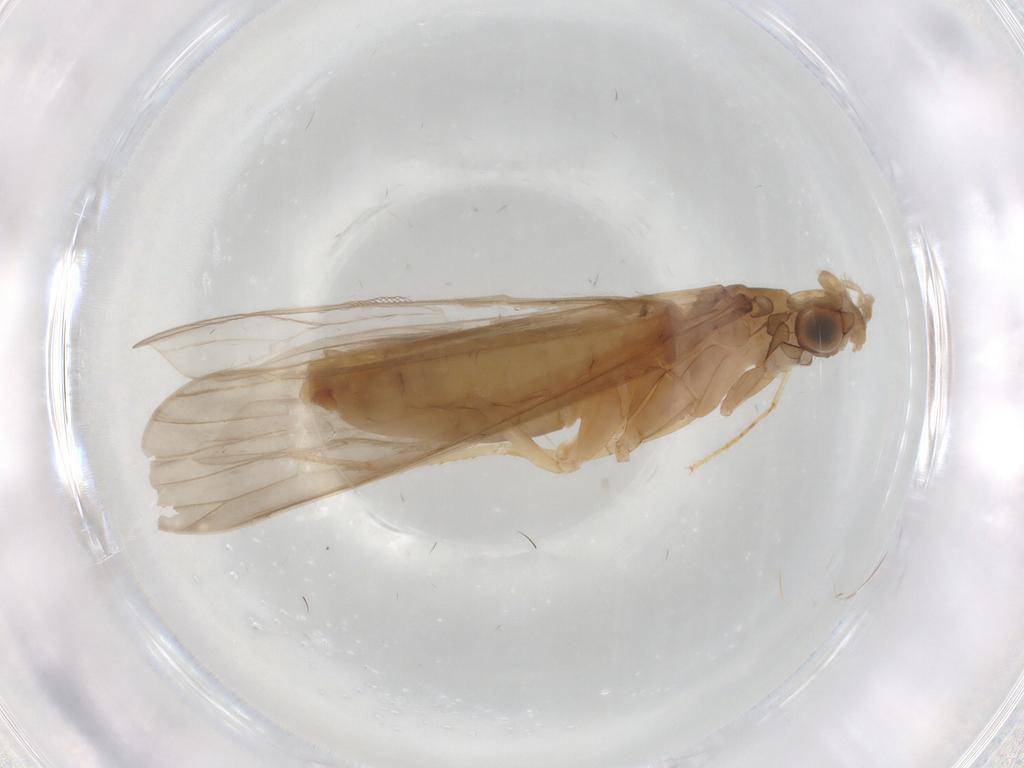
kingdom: Animalia
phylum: Arthropoda
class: Insecta
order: Trichoptera
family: Leptoceridae
